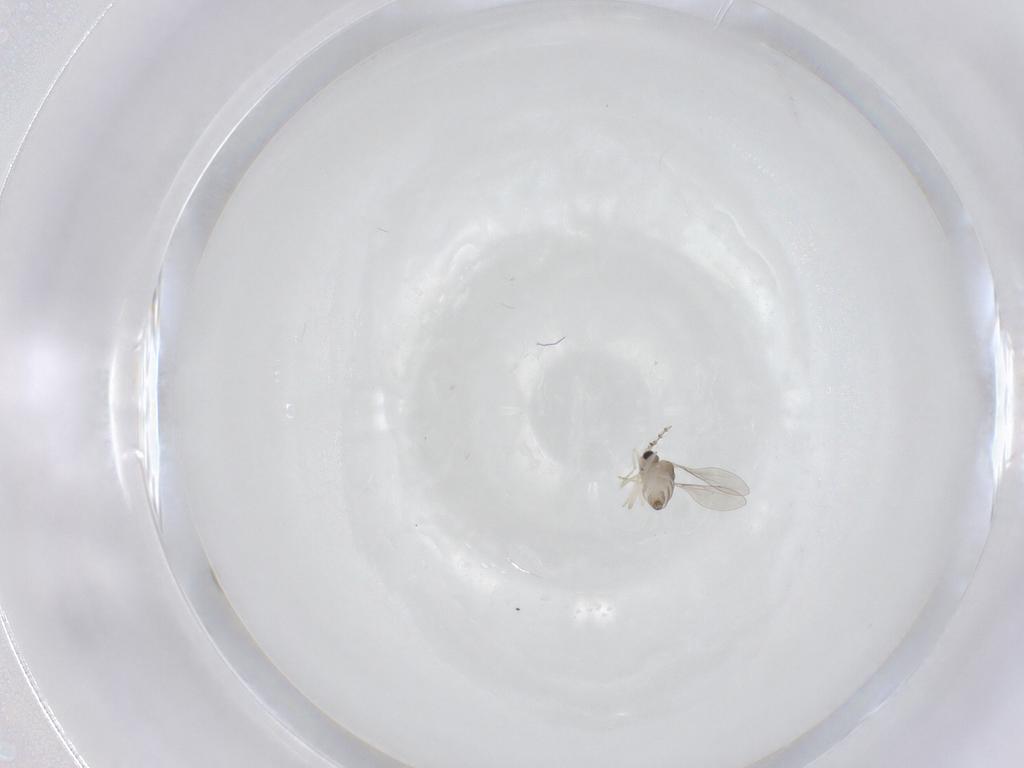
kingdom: Animalia
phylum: Arthropoda
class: Insecta
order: Diptera
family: Cecidomyiidae
